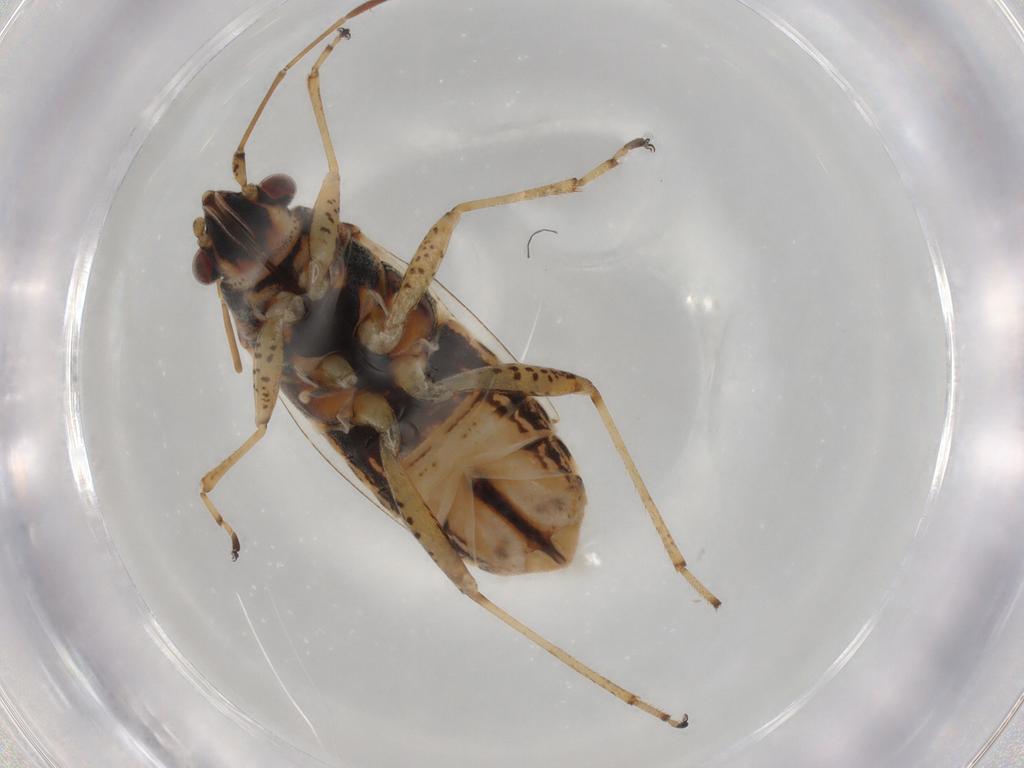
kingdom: Animalia
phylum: Arthropoda
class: Insecta
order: Hemiptera
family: Lygaeidae
